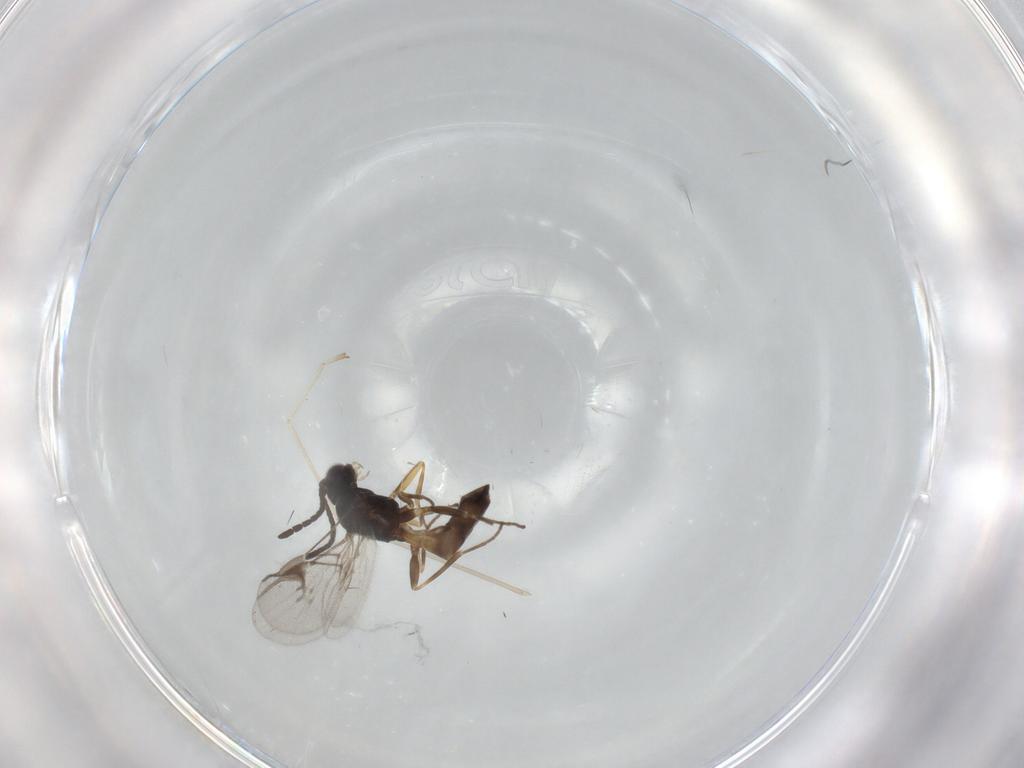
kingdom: Animalia
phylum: Arthropoda
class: Insecta
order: Hymenoptera
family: Braconidae
